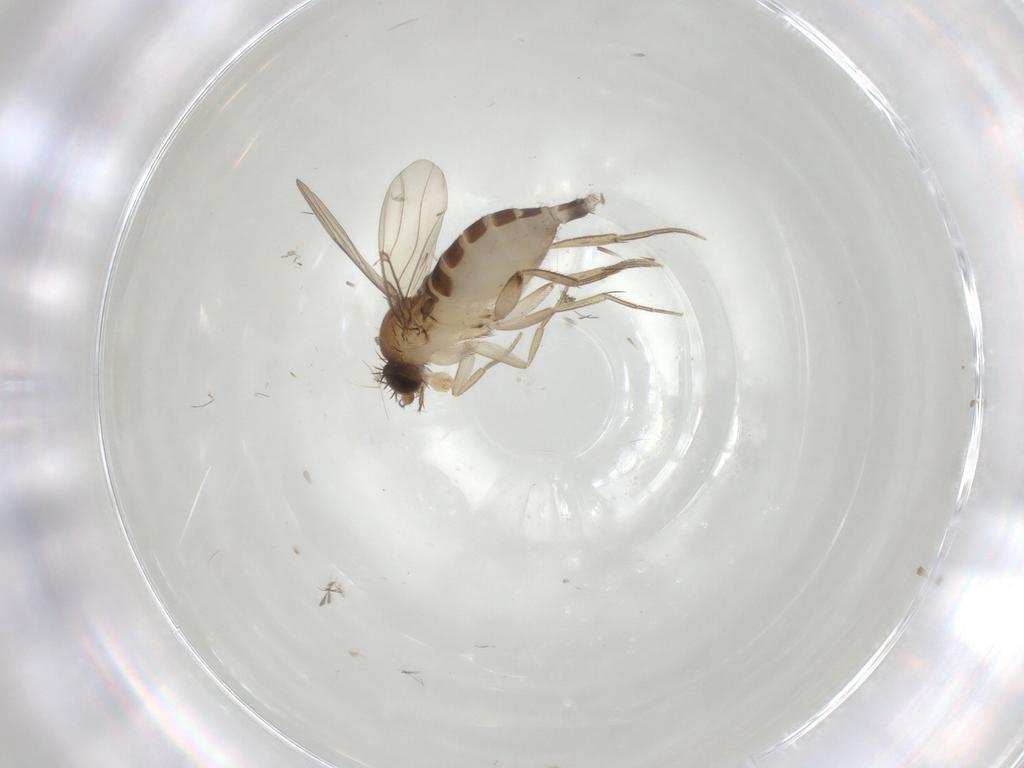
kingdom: Animalia
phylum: Arthropoda
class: Insecta
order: Diptera
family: Phoridae
